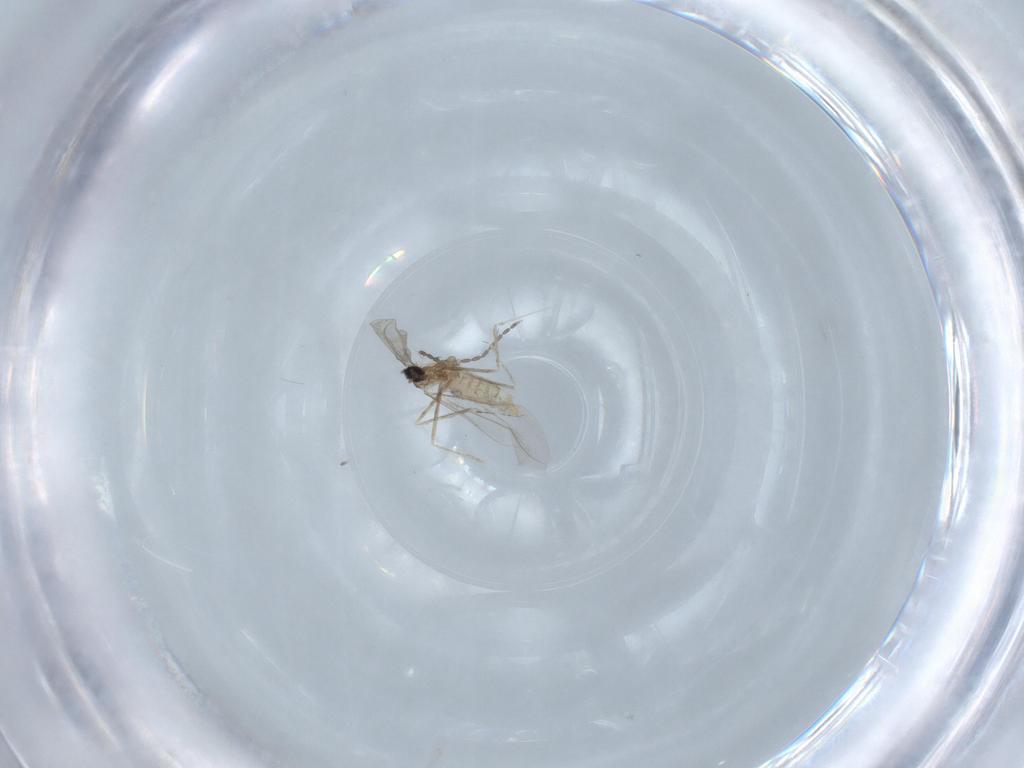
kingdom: Animalia
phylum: Arthropoda
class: Insecta
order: Diptera
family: Cecidomyiidae
